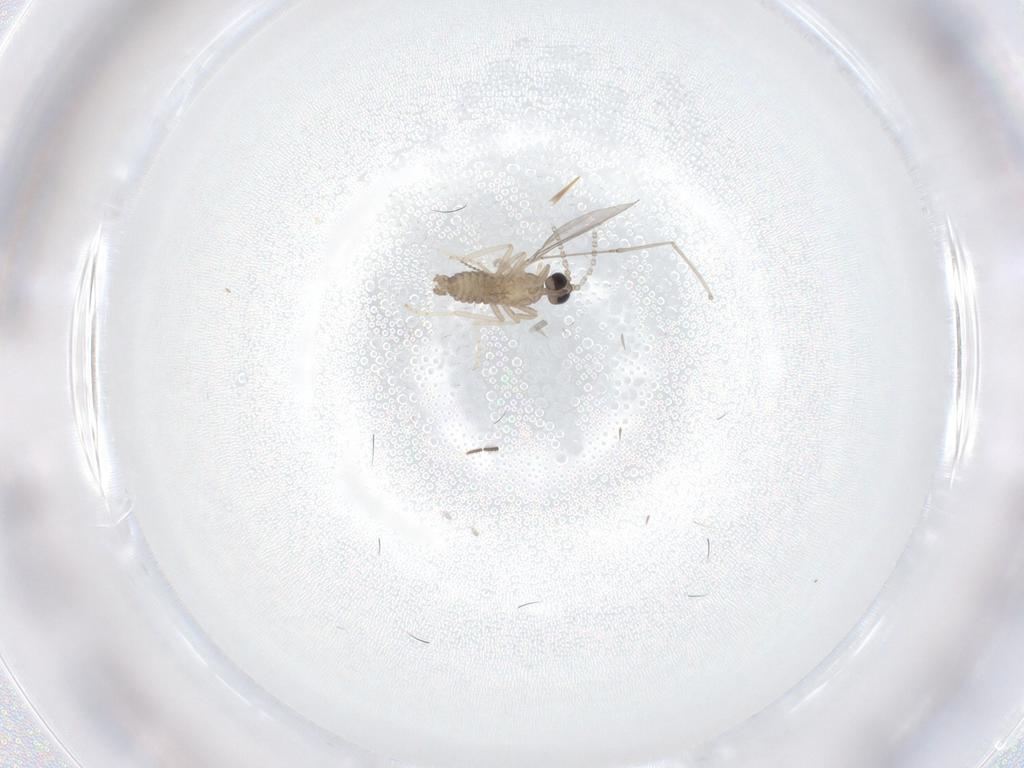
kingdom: Animalia
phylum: Arthropoda
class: Insecta
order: Diptera
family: Cecidomyiidae
